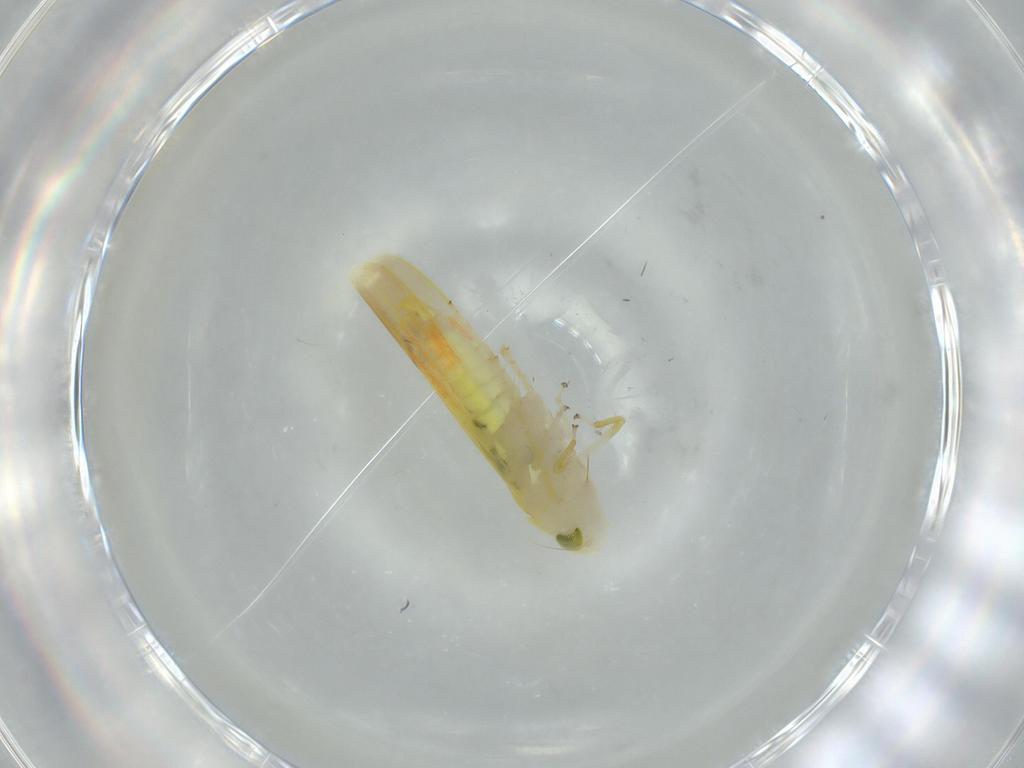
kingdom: Animalia
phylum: Arthropoda
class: Insecta
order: Hemiptera
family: Cicadellidae
